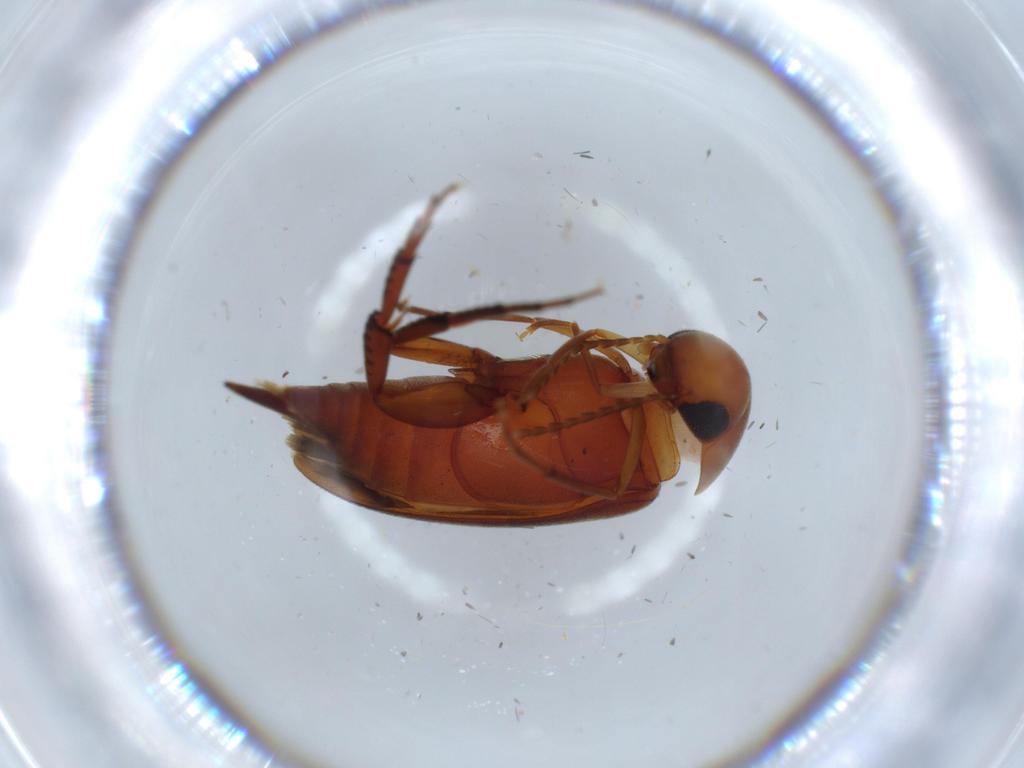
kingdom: Animalia
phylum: Arthropoda
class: Insecta
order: Coleoptera
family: Mordellidae
